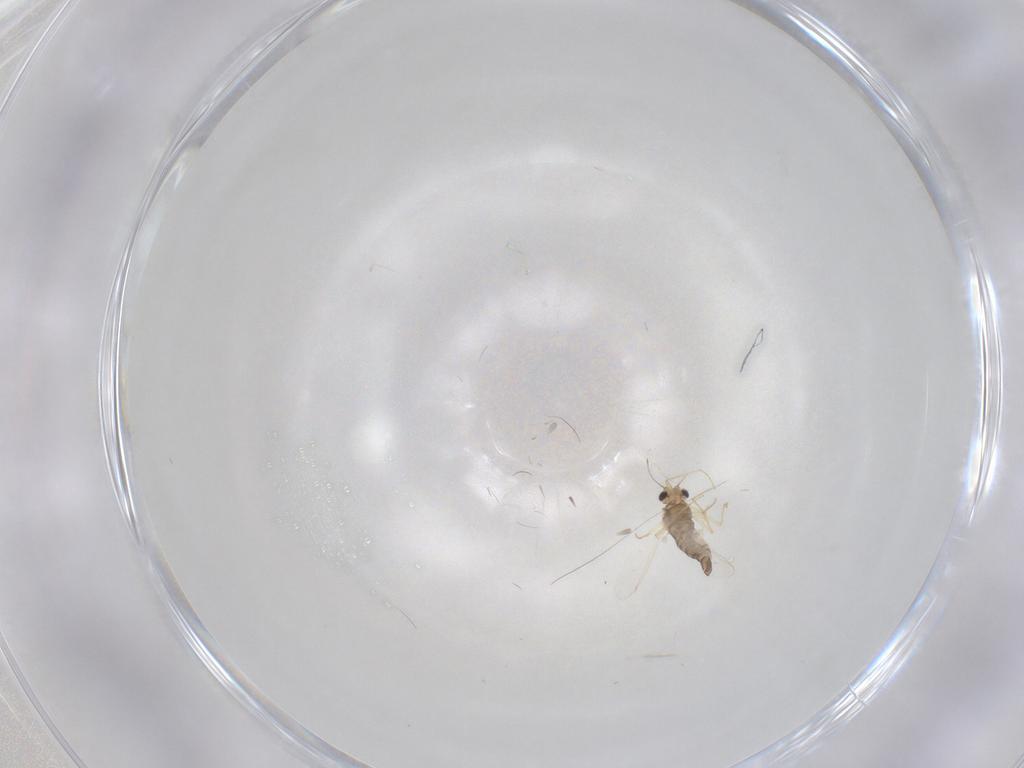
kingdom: Animalia
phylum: Arthropoda
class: Insecta
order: Diptera
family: Chironomidae
